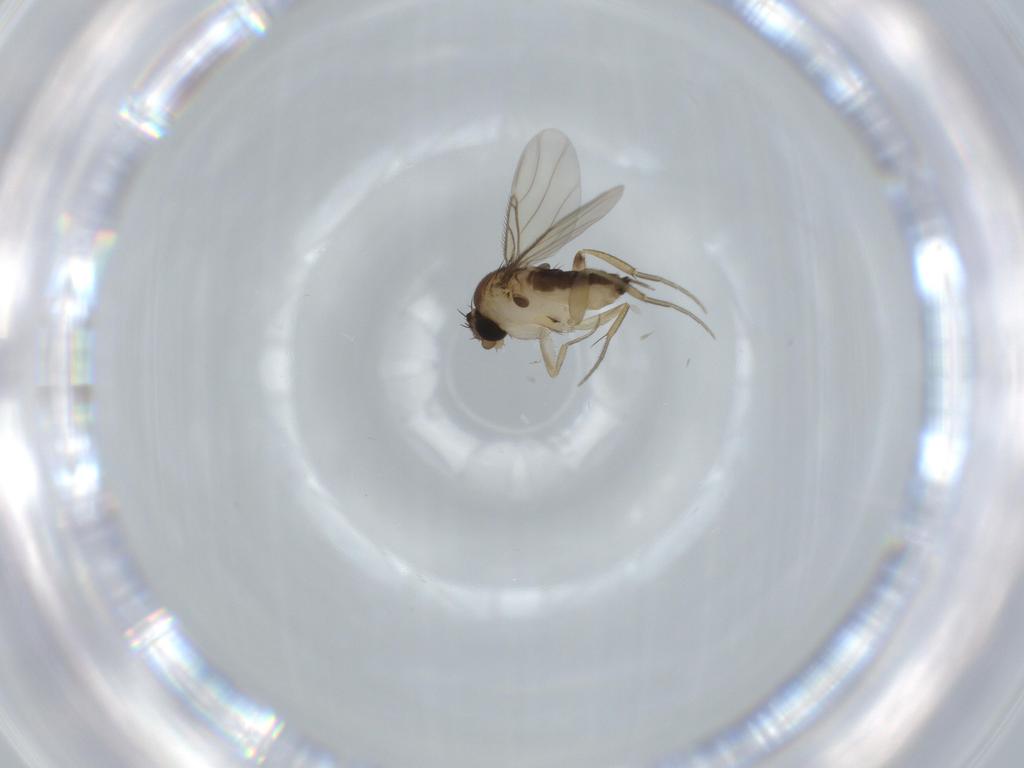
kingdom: Animalia
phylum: Arthropoda
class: Insecta
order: Diptera
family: Phoridae
